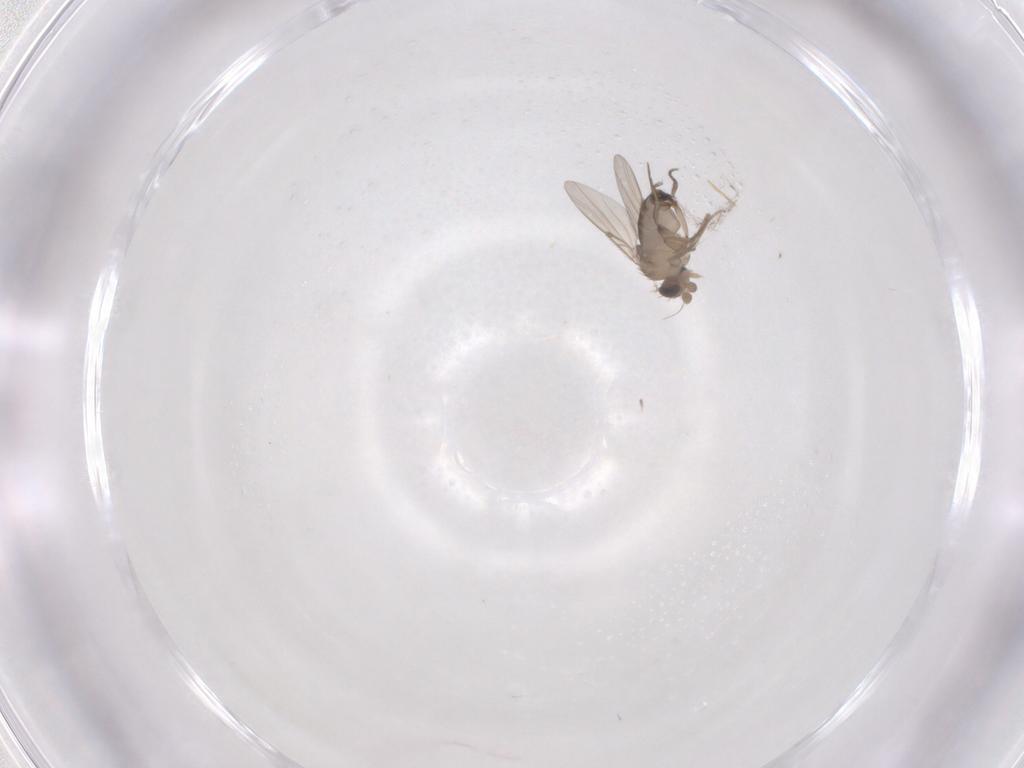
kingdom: Animalia
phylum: Arthropoda
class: Insecta
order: Diptera
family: Phoridae
